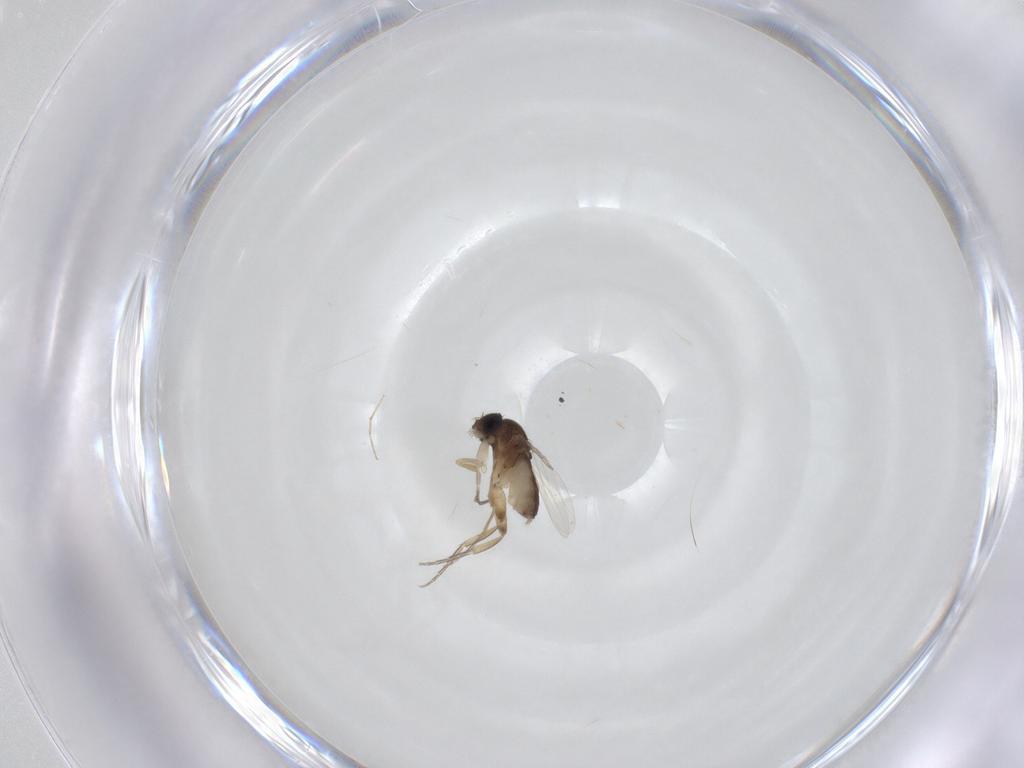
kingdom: Animalia
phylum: Arthropoda
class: Insecta
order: Diptera
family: Phoridae
